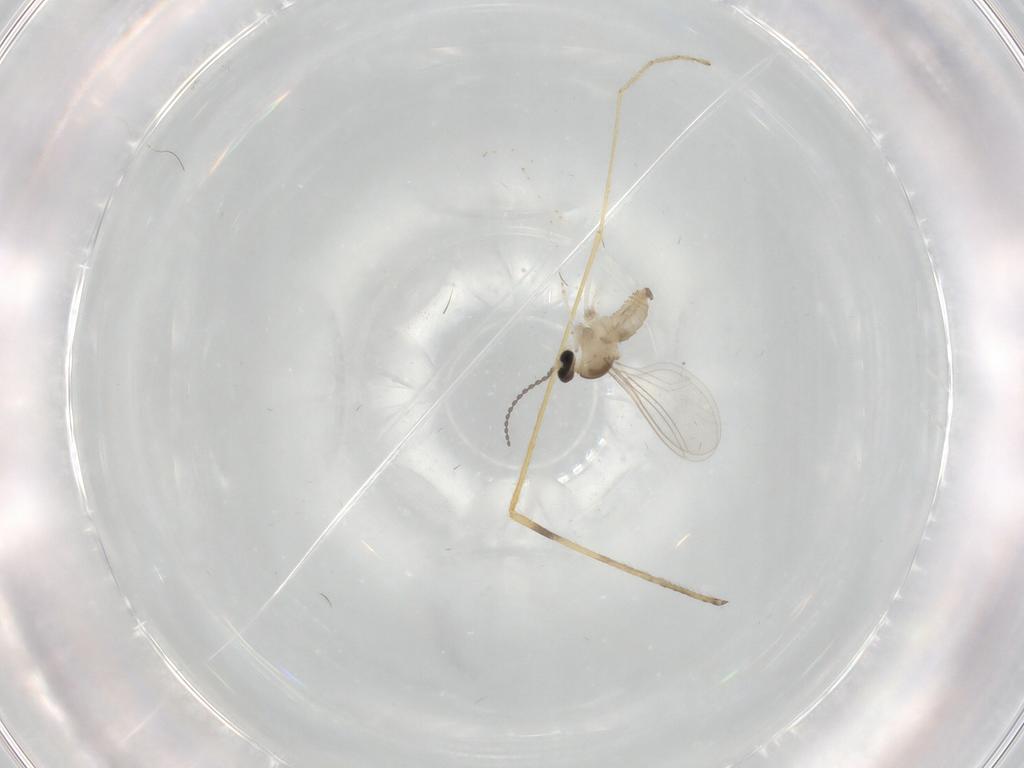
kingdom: Animalia
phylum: Arthropoda
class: Insecta
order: Diptera
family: Cecidomyiidae
